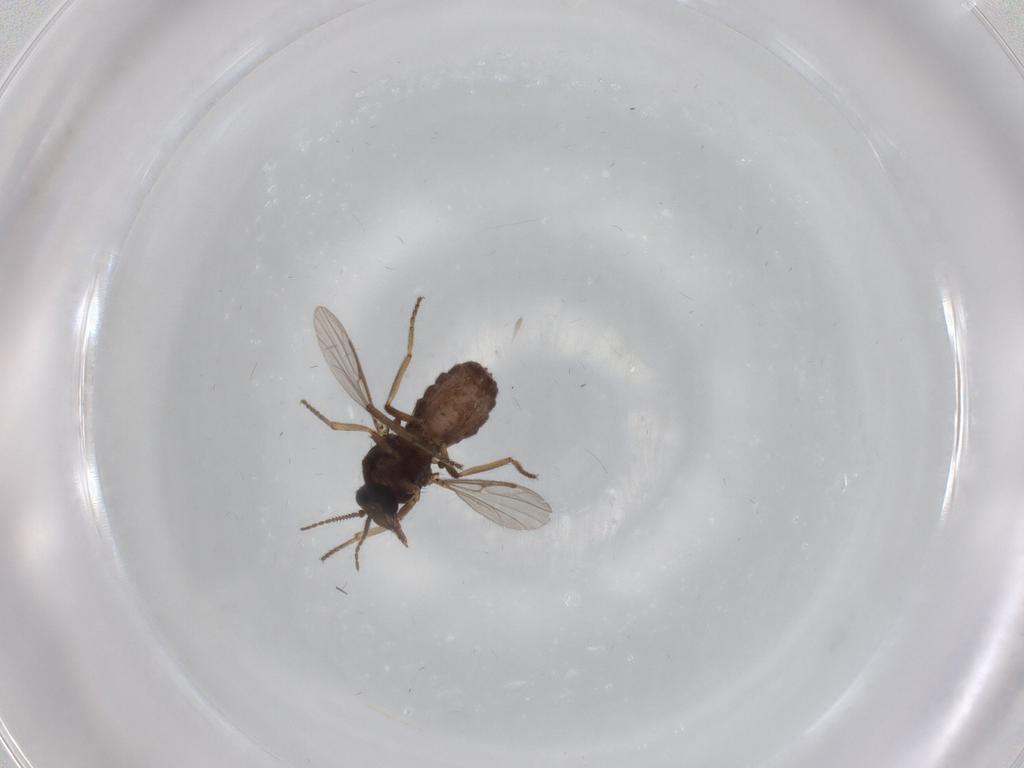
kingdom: Animalia
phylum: Arthropoda
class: Insecta
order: Diptera
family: Ceratopogonidae
